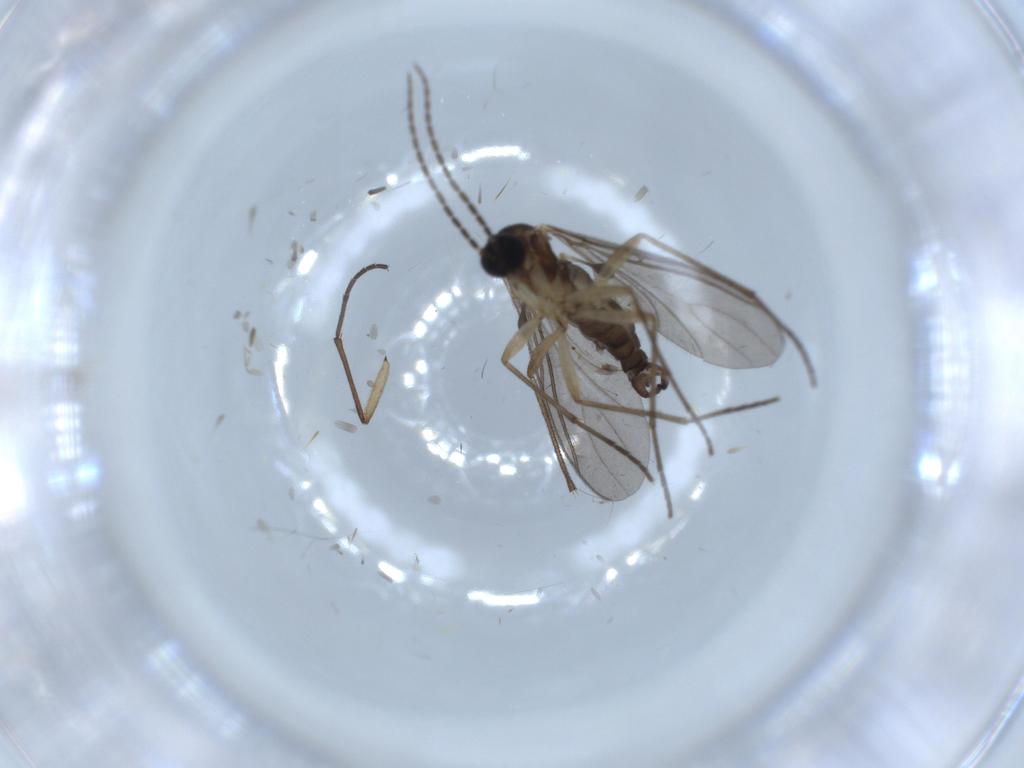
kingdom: Animalia
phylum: Arthropoda
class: Insecta
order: Diptera
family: Sciaridae
